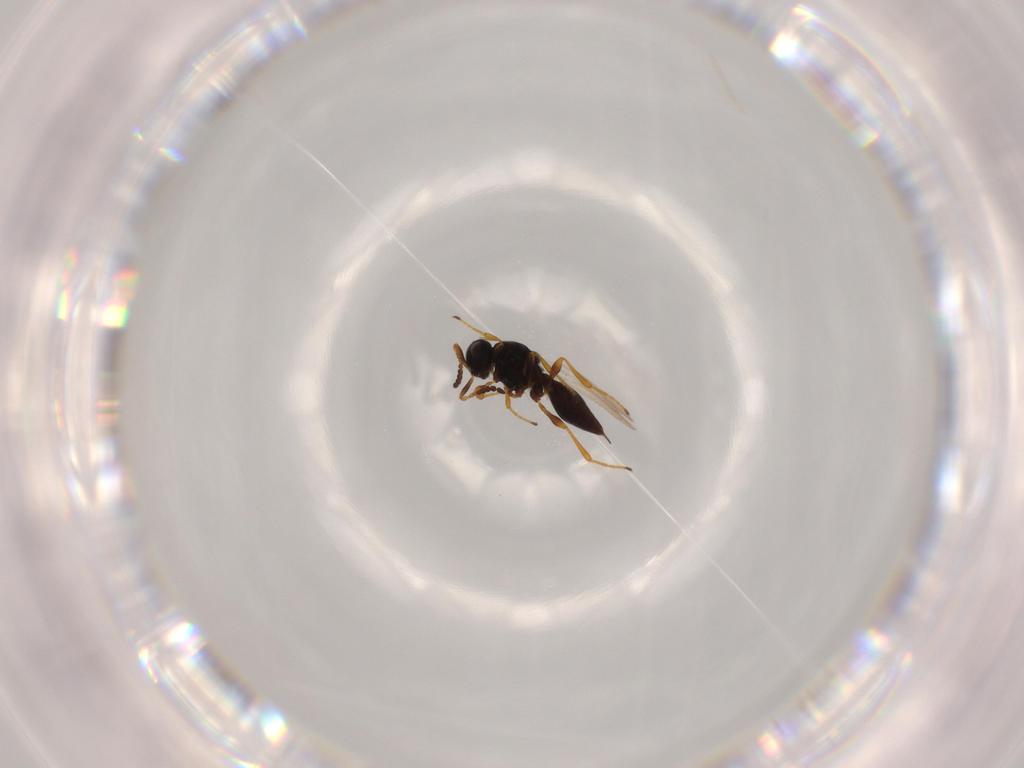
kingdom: Animalia
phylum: Arthropoda
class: Insecta
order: Hymenoptera
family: Platygastridae
